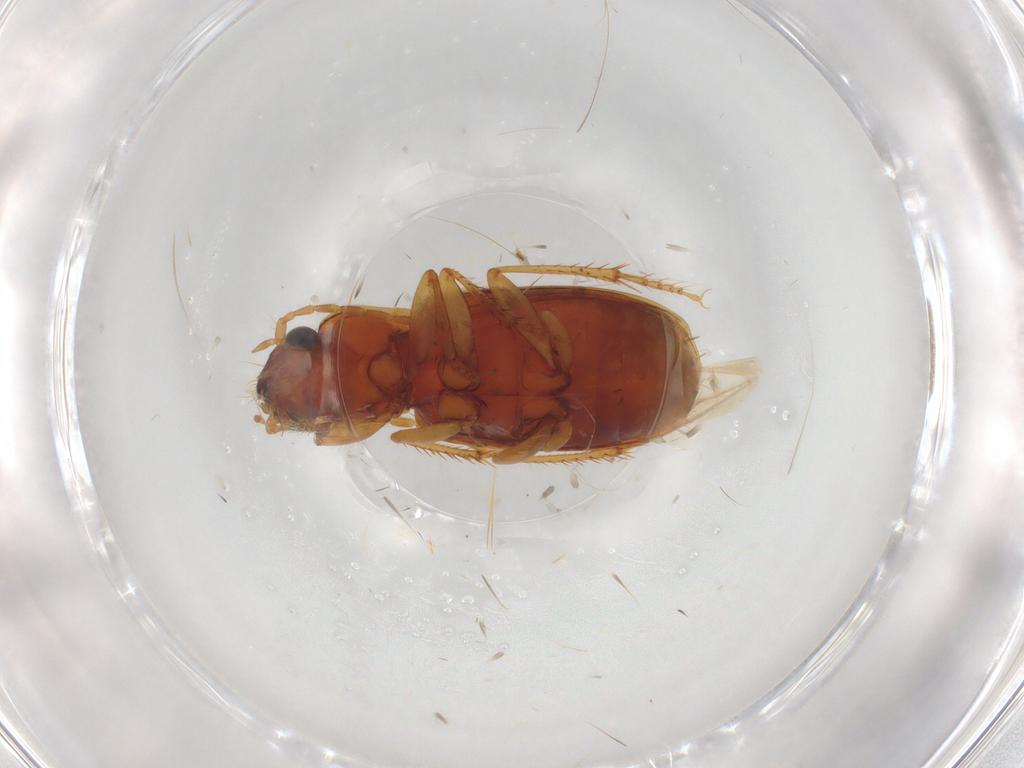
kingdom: Animalia
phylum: Arthropoda
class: Insecta
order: Coleoptera
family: Carabidae
